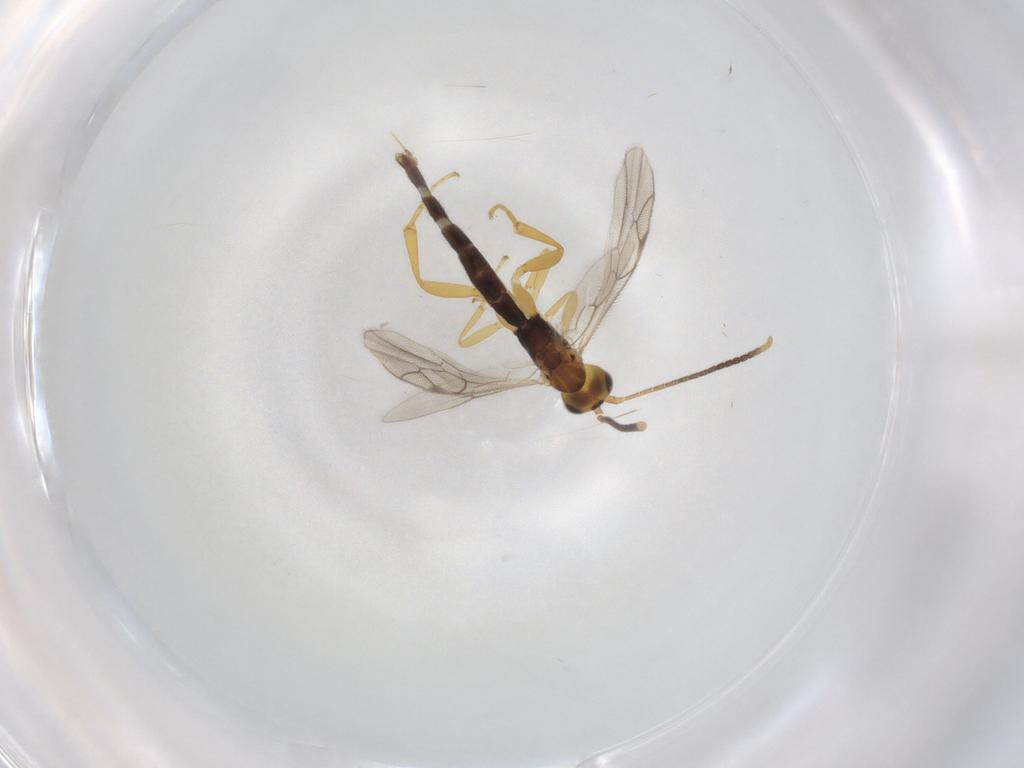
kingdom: Animalia
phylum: Arthropoda
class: Insecta
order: Hymenoptera
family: Ichneumonidae
